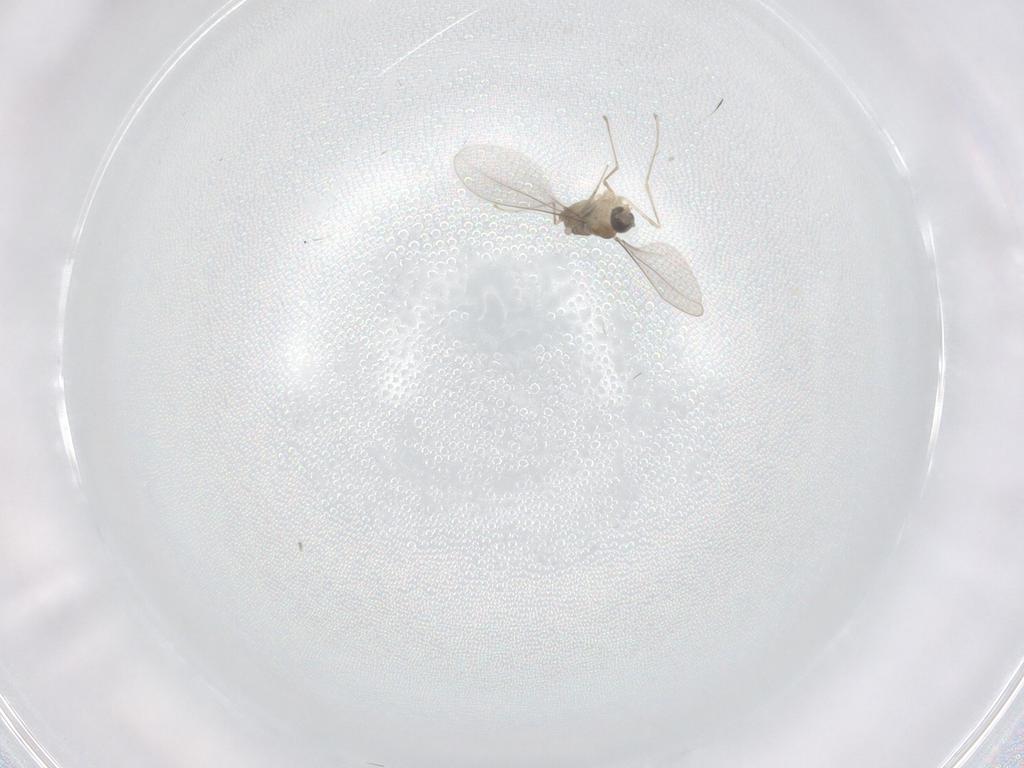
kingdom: Animalia
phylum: Arthropoda
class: Insecta
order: Diptera
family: Cecidomyiidae
